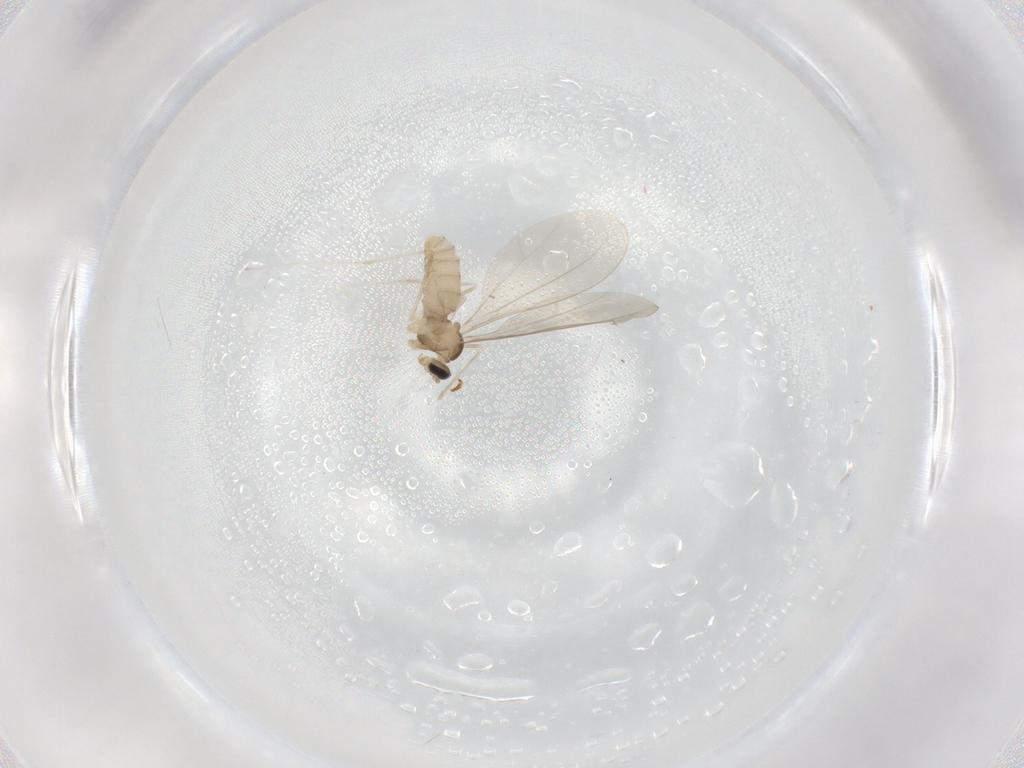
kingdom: Animalia
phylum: Arthropoda
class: Insecta
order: Diptera
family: Cecidomyiidae
